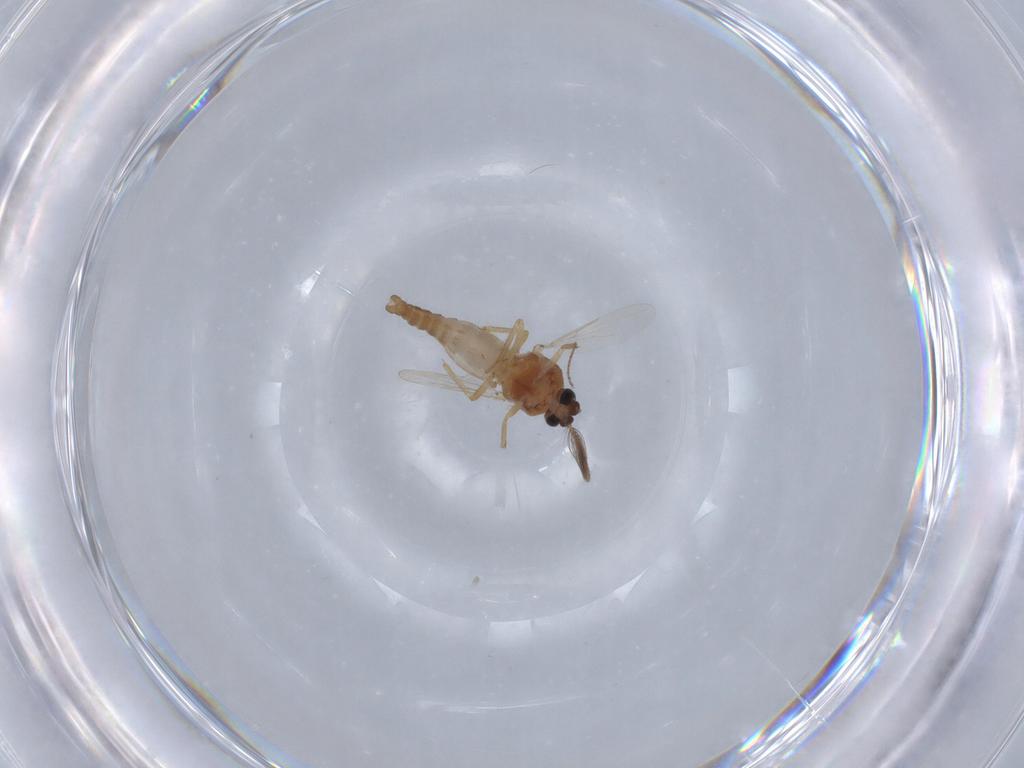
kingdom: Animalia
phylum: Arthropoda
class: Insecta
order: Diptera
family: Ceratopogonidae
